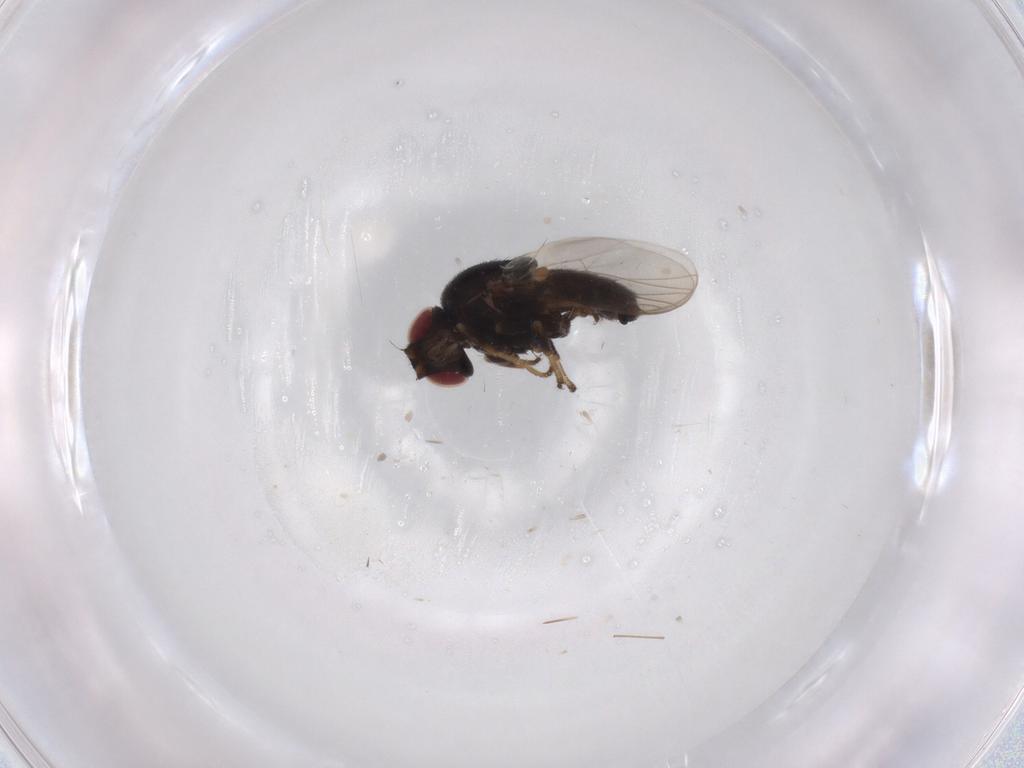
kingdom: Animalia
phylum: Arthropoda
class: Insecta
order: Diptera
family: Chloropidae
